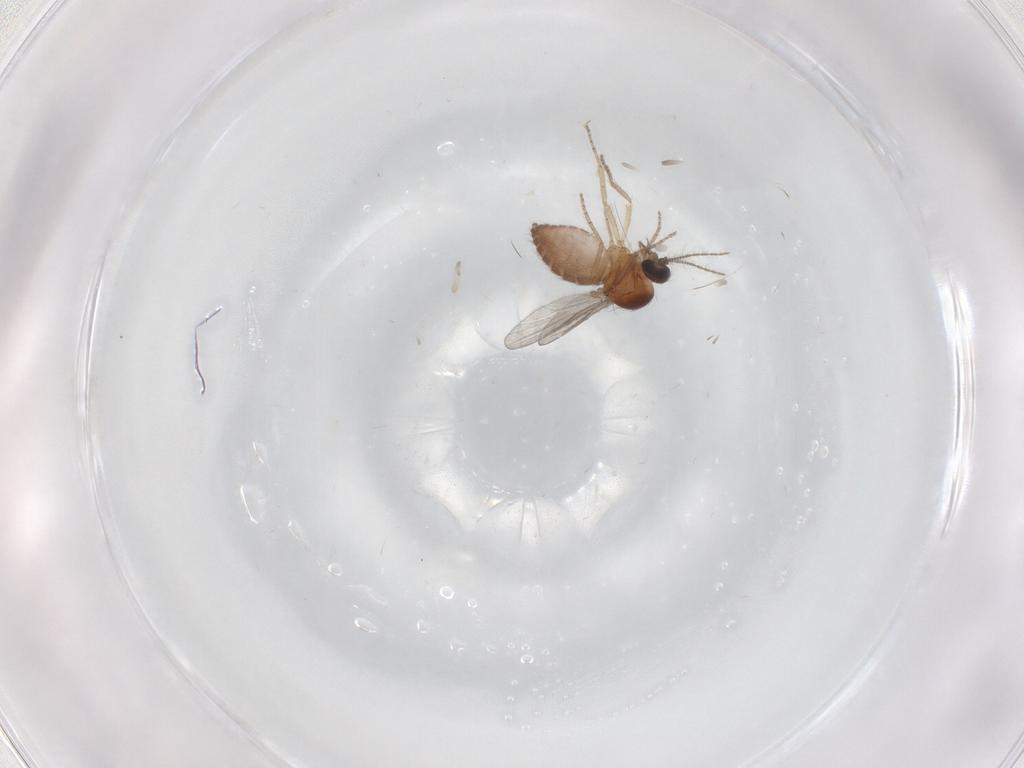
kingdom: Animalia
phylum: Arthropoda
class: Insecta
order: Diptera
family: Ceratopogonidae
